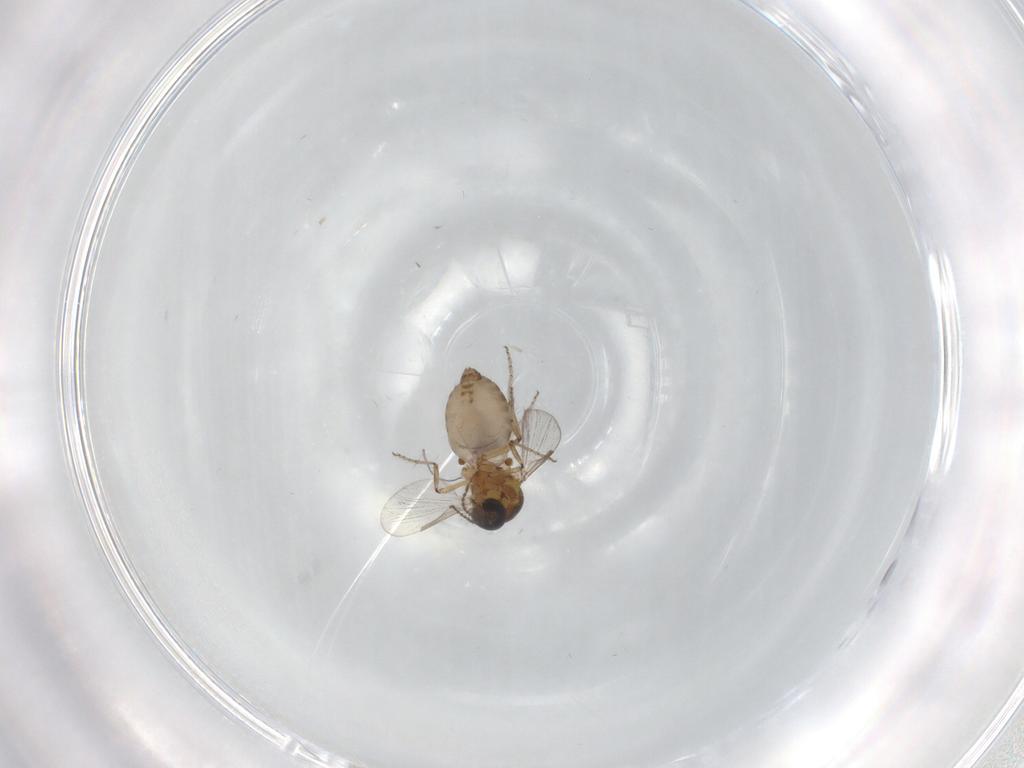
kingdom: Animalia
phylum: Arthropoda
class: Insecta
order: Diptera
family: Ceratopogonidae
